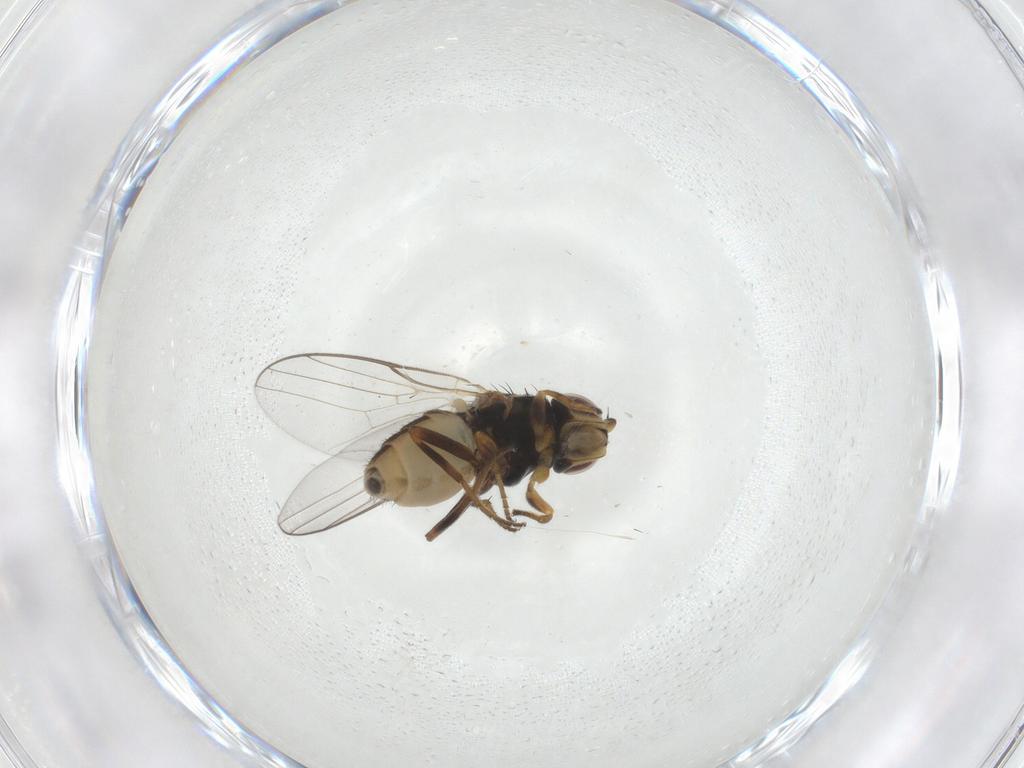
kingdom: Animalia
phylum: Arthropoda
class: Insecta
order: Diptera
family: Chloropidae
